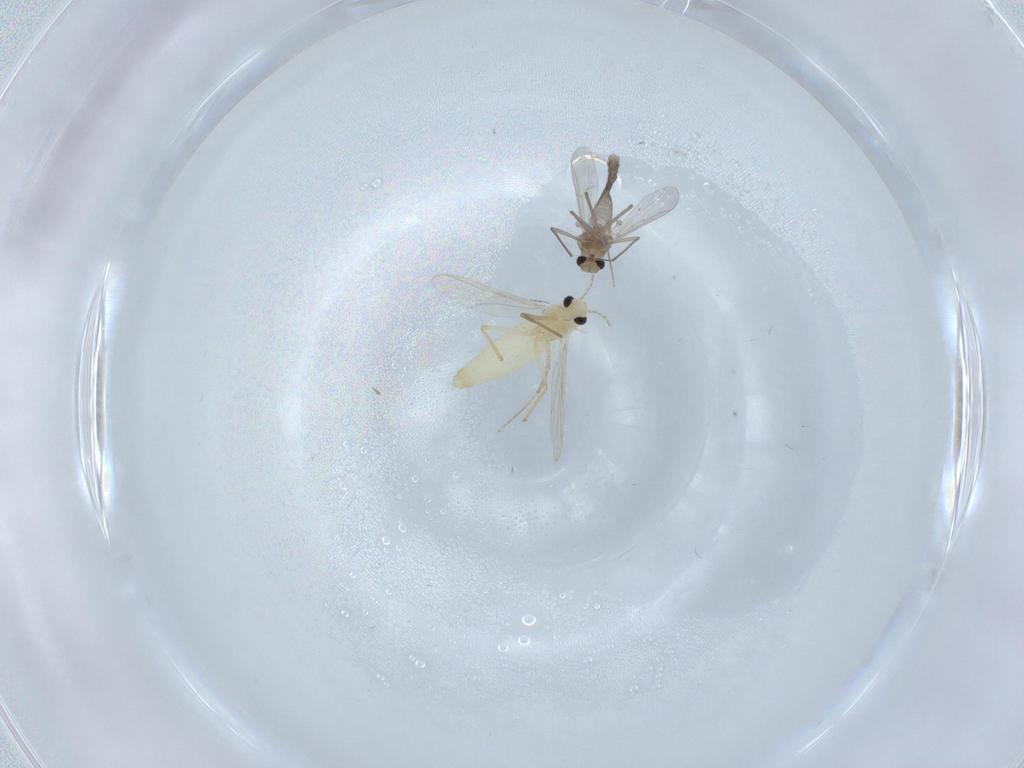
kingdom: Animalia
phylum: Arthropoda
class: Insecta
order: Diptera
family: Chironomidae
